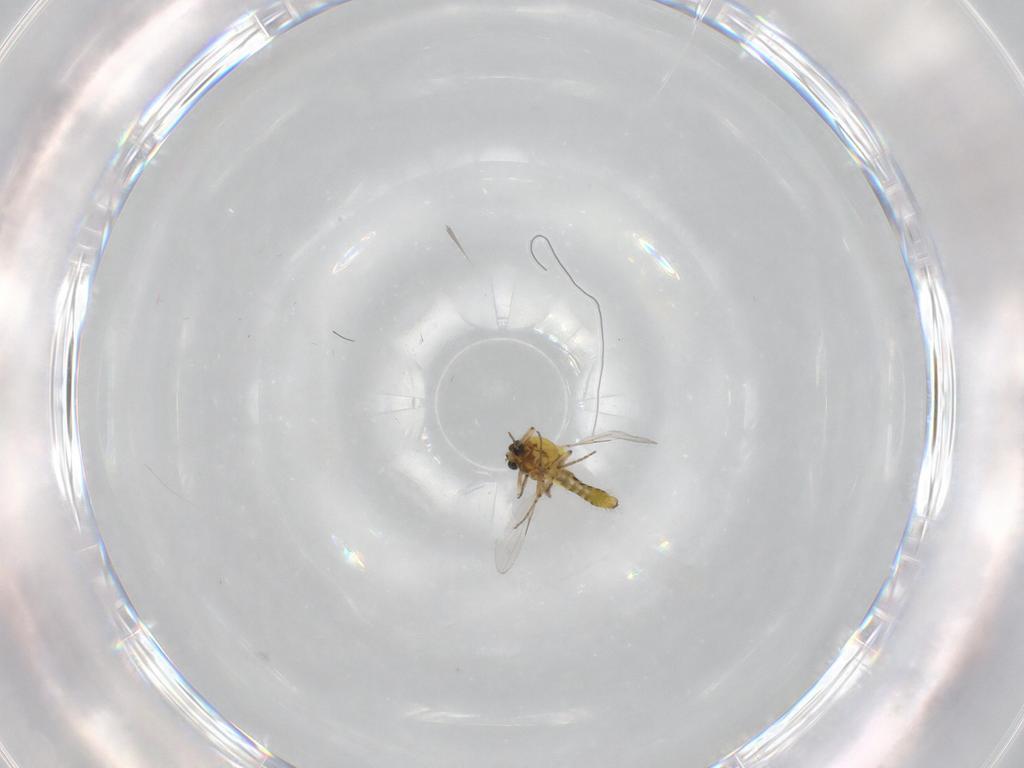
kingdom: Animalia
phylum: Arthropoda
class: Insecta
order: Diptera
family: Ceratopogonidae
